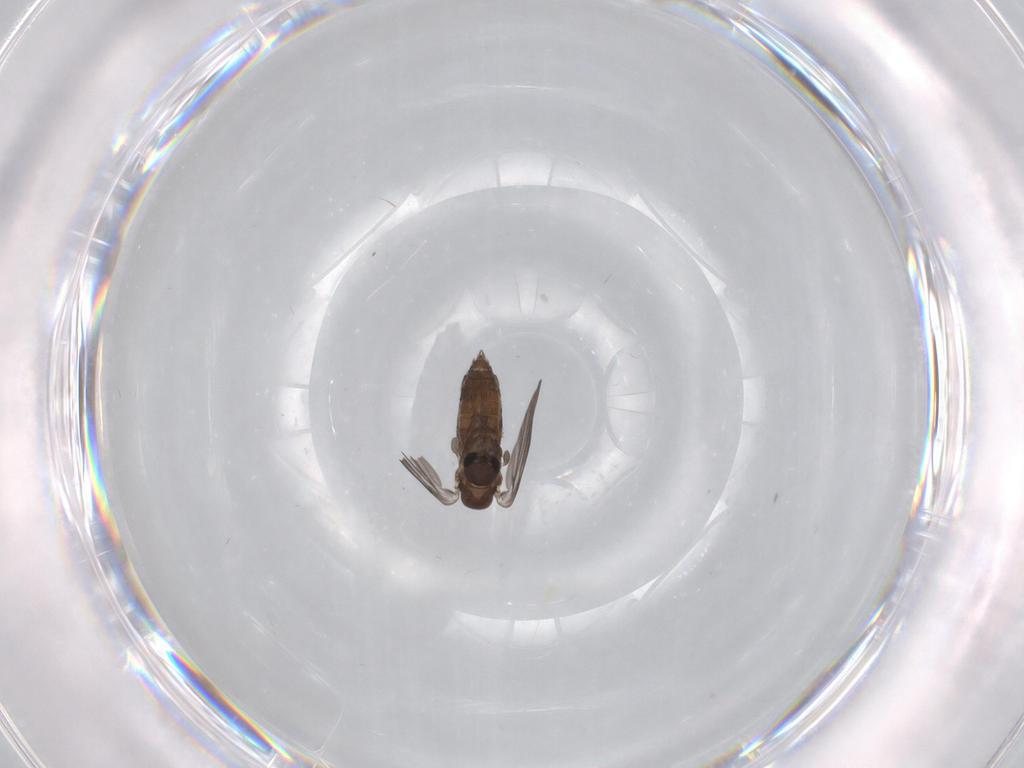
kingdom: Animalia
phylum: Arthropoda
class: Insecta
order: Diptera
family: Psychodidae
